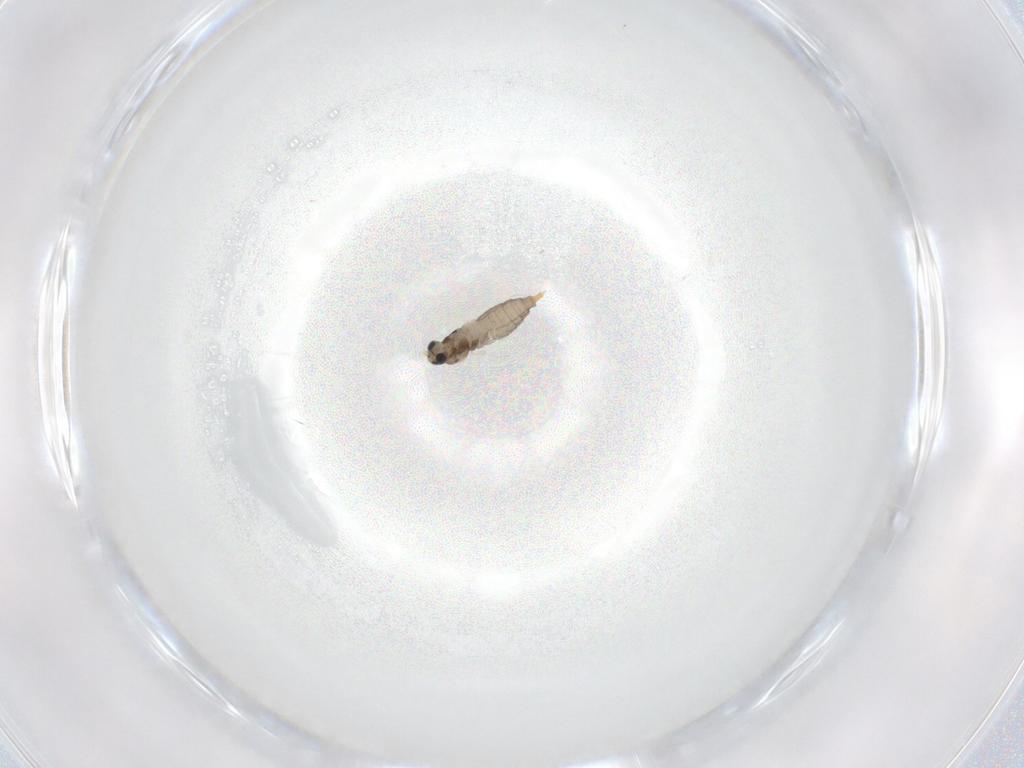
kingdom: Animalia
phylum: Arthropoda
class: Insecta
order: Diptera
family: Cecidomyiidae
